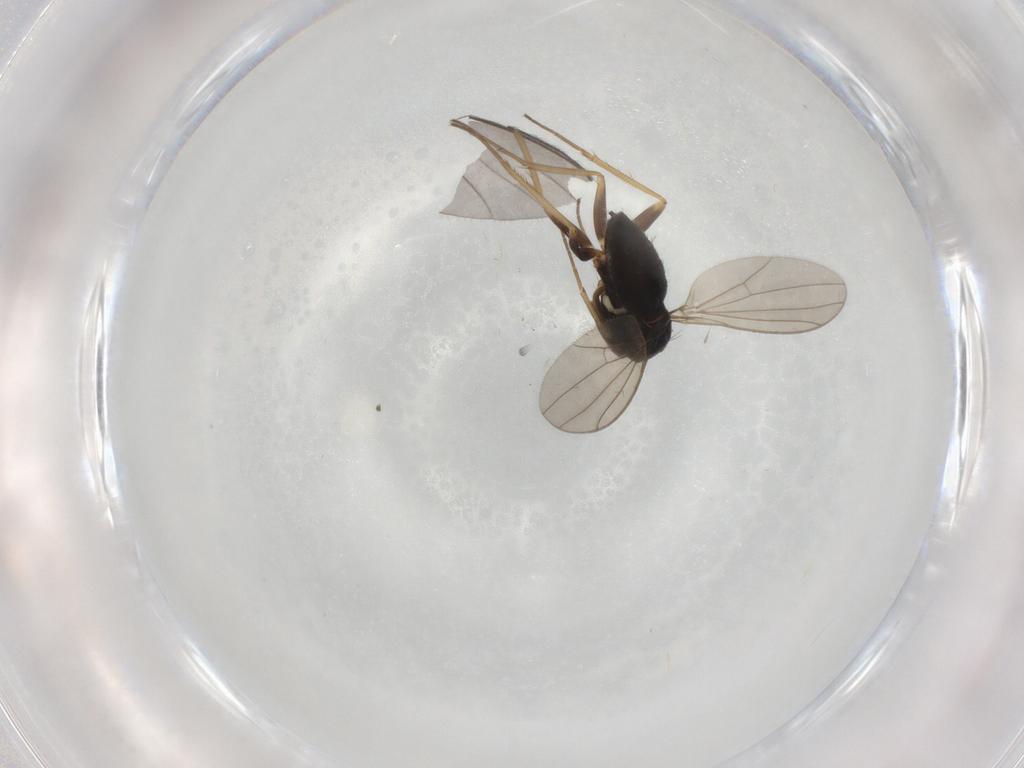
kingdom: Animalia
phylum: Arthropoda
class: Insecta
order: Diptera
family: Dolichopodidae
